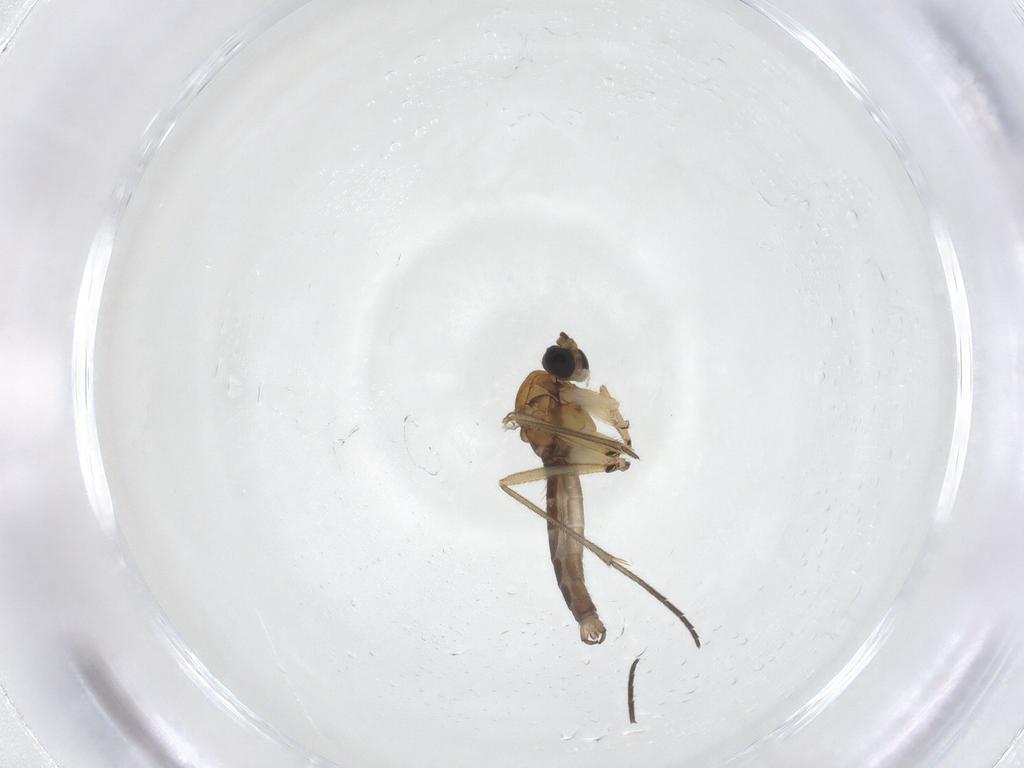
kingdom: Animalia
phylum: Arthropoda
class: Insecta
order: Diptera
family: Sciaridae
